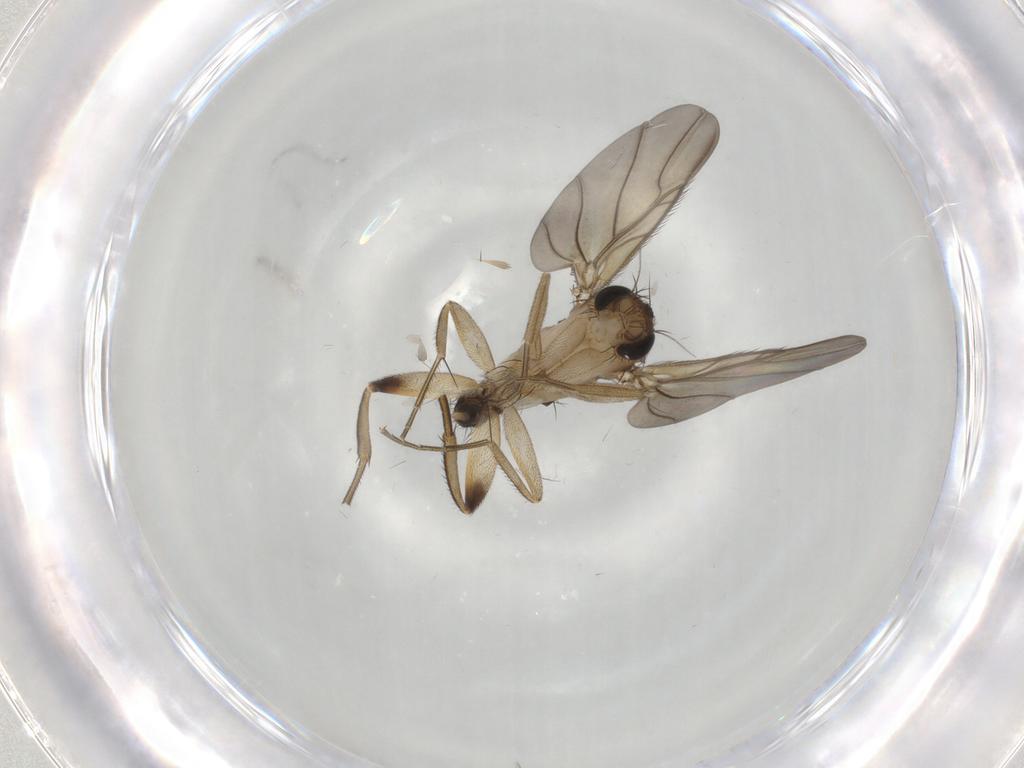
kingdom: Animalia
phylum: Arthropoda
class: Insecta
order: Diptera
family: Phoridae
